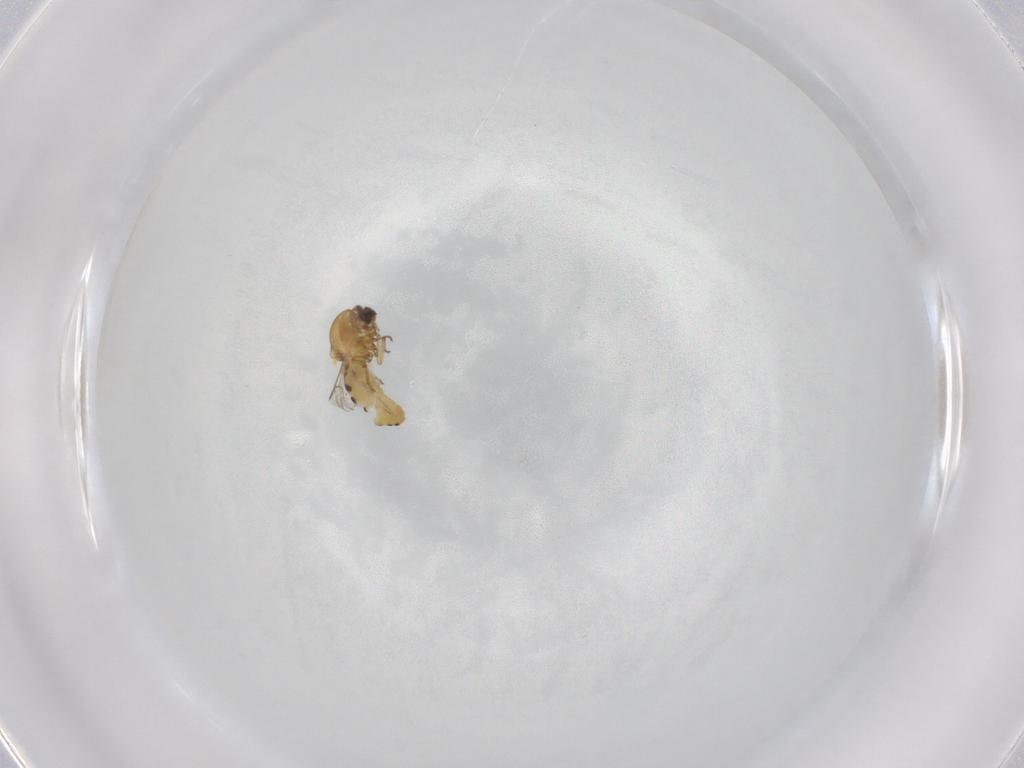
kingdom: Animalia
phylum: Arthropoda
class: Insecta
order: Diptera
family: Ceratopogonidae
